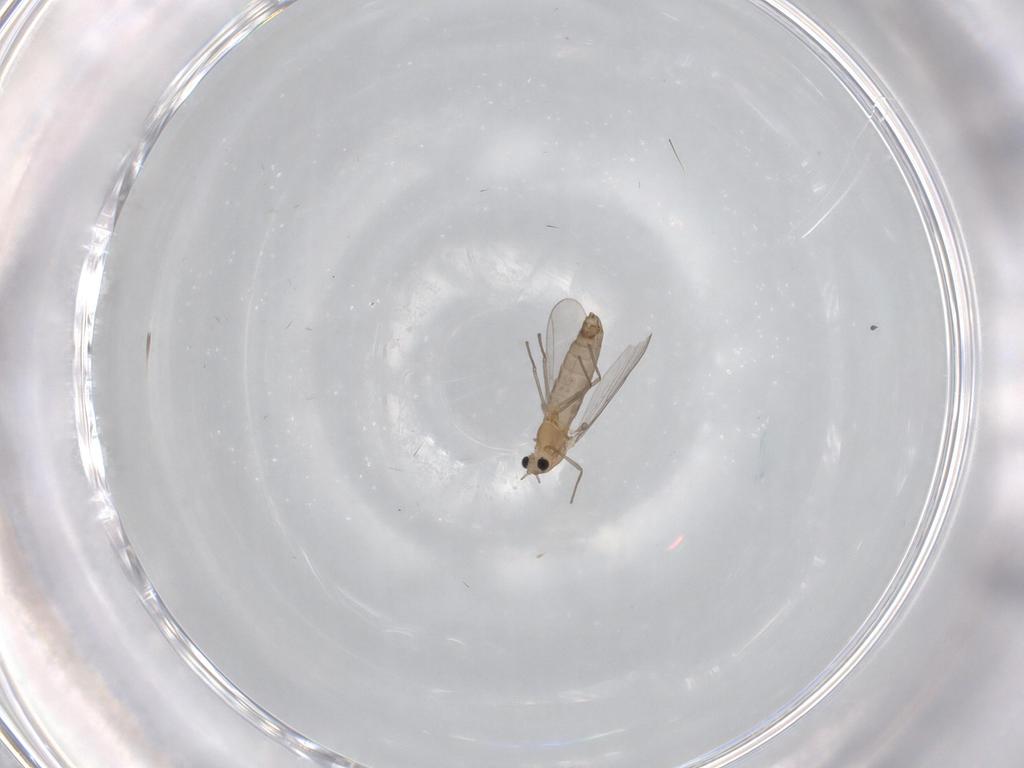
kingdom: Animalia
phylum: Arthropoda
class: Insecta
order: Diptera
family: Chironomidae
